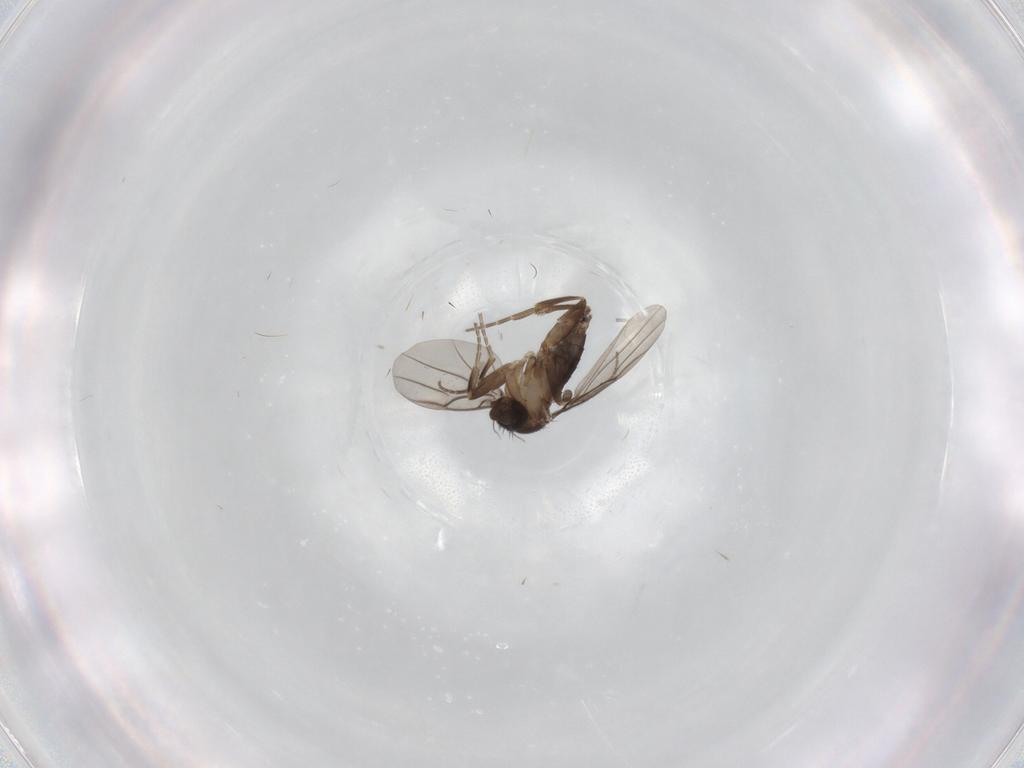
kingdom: Animalia
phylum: Arthropoda
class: Insecta
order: Diptera
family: Phoridae
